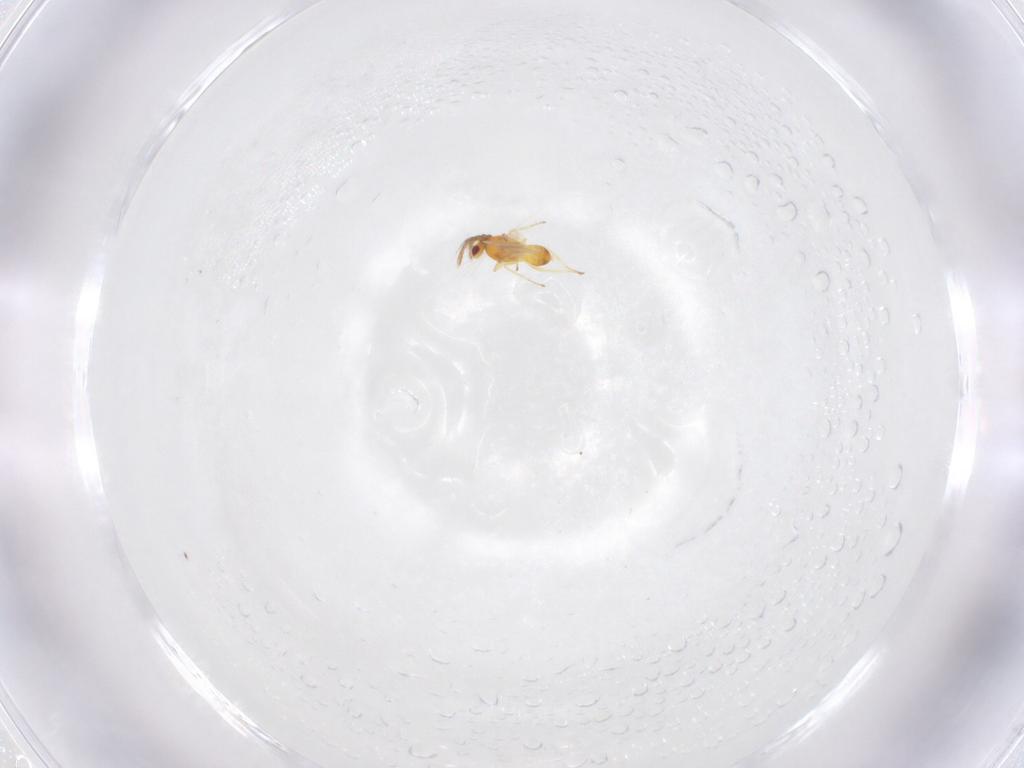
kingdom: Animalia
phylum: Arthropoda
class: Insecta
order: Hymenoptera
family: Eulophidae
